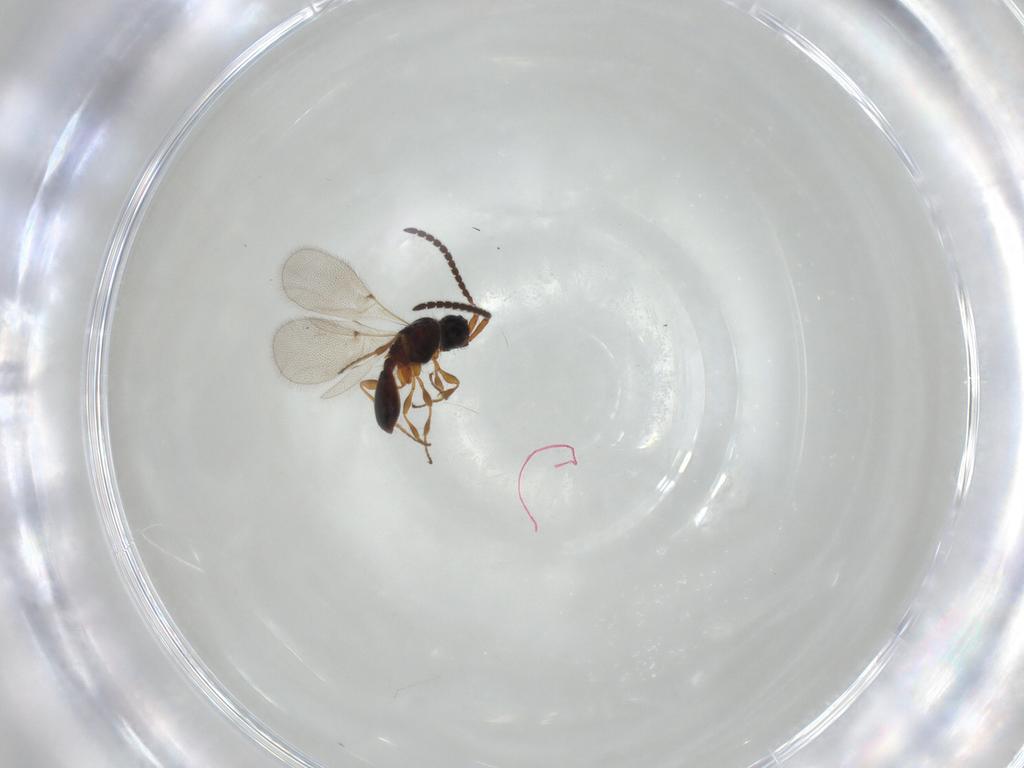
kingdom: Animalia
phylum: Arthropoda
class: Insecta
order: Hymenoptera
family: Diapriidae
